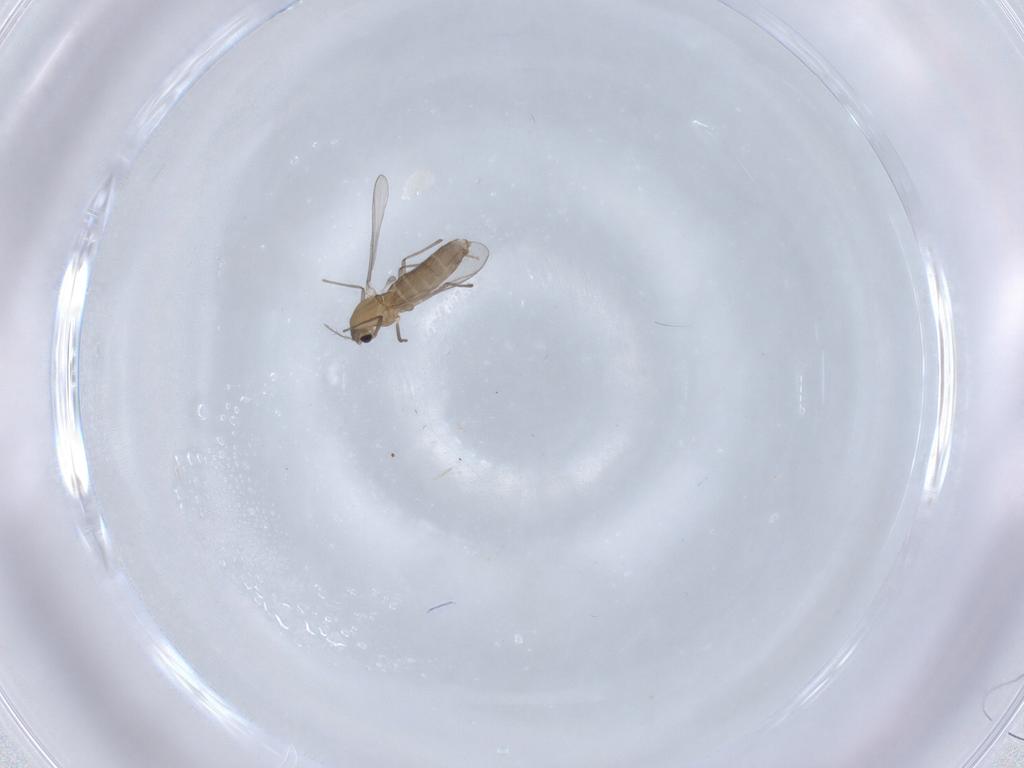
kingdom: Animalia
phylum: Arthropoda
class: Insecta
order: Diptera
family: Chironomidae
